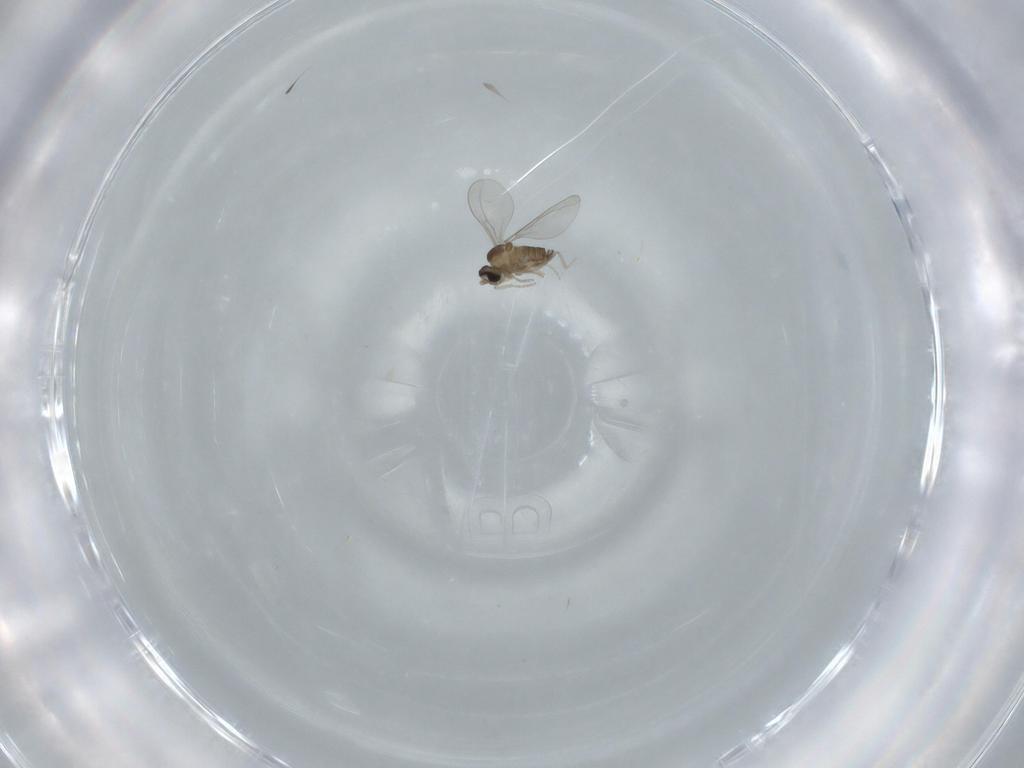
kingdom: Animalia
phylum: Arthropoda
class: Insecta
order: Diptera
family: Cecidomyiidae
